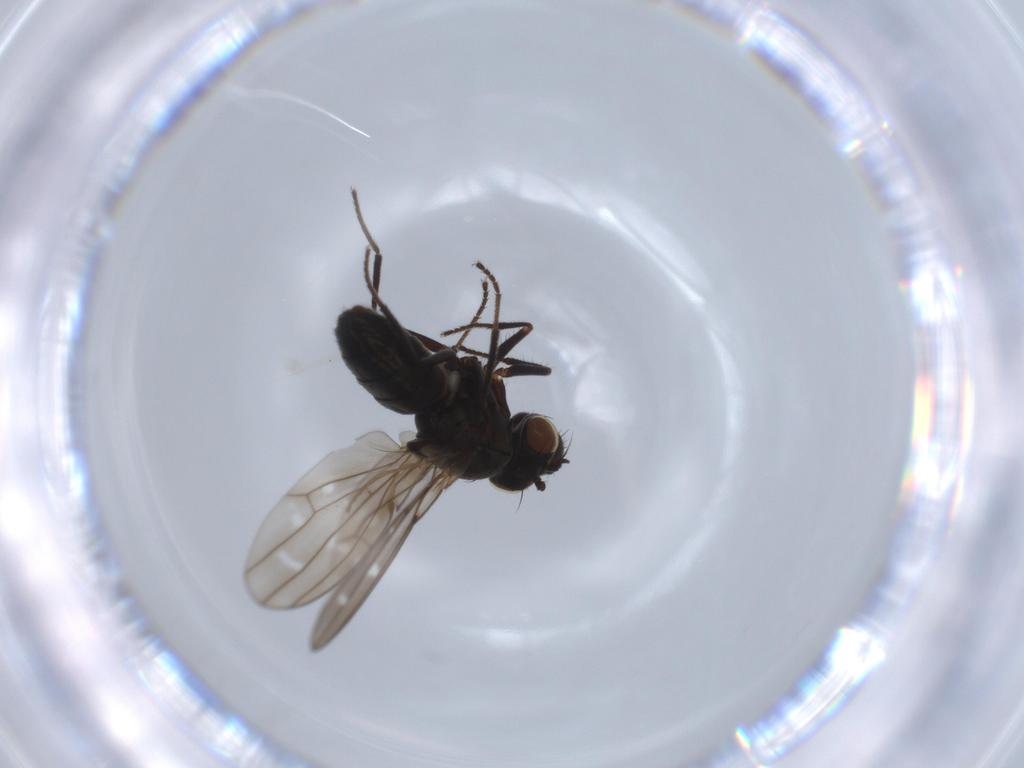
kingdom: Animalia
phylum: Arthropoda
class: Insecta
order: Diptera
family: Ephydridae
